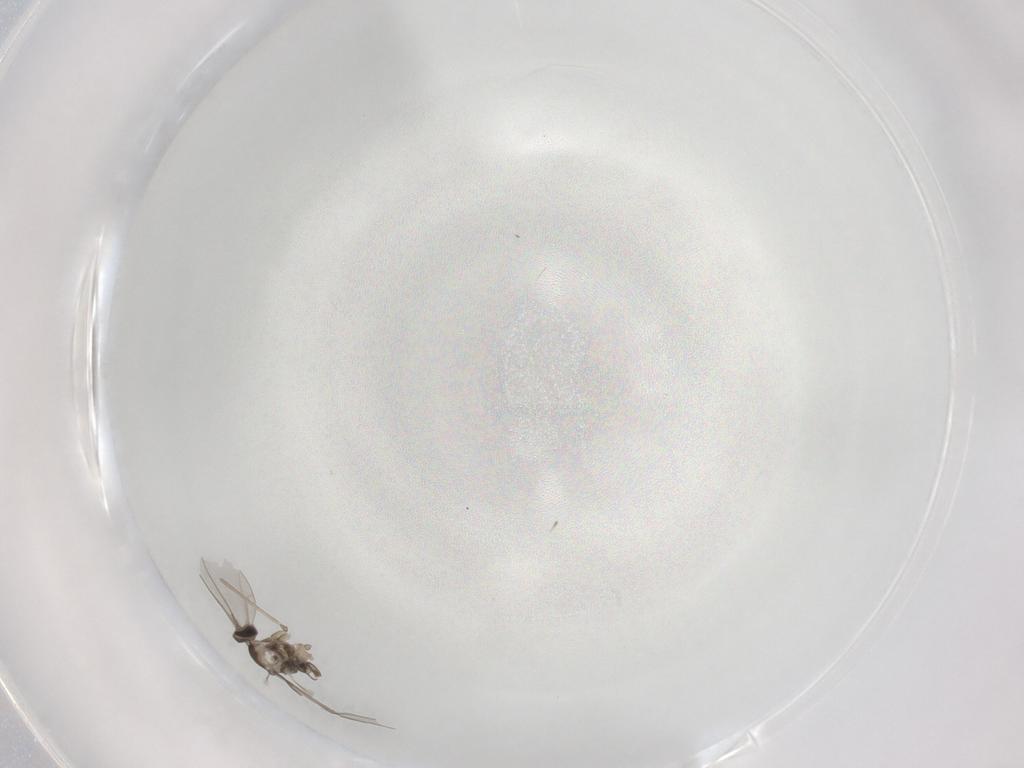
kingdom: Animalia
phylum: Arthropoda
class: Insecta
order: Diptera
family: Cecidomyiidae
